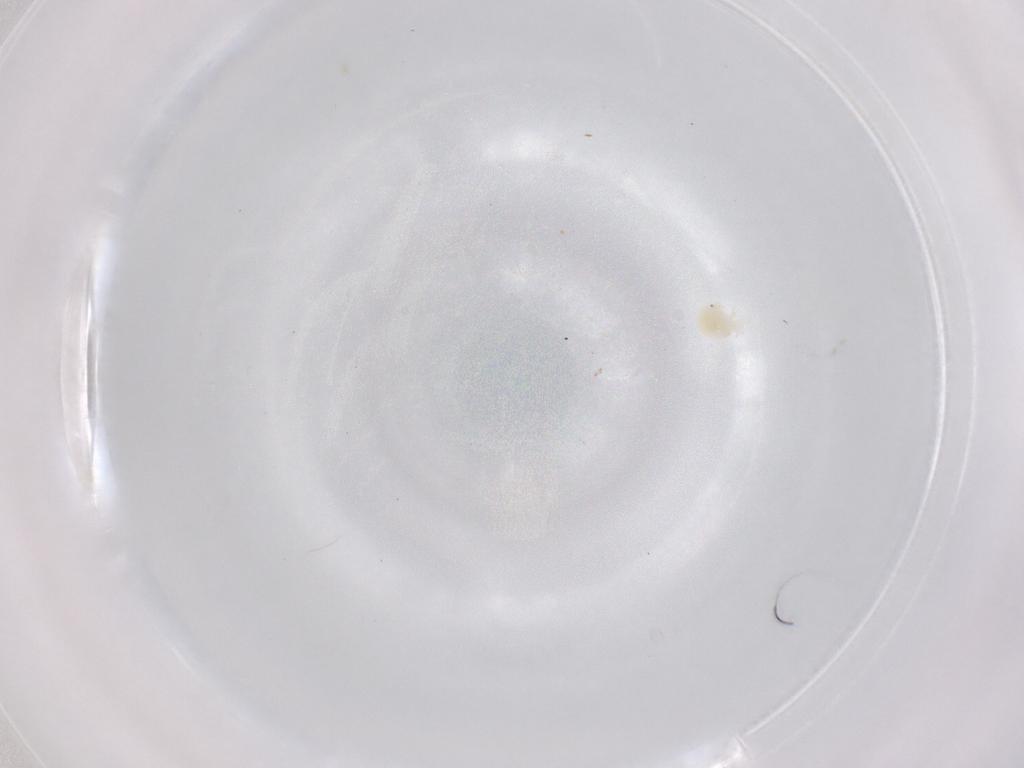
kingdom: Animalia
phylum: Arthropoda
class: Arachnida
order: Trombidiformes
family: Eupodidae
